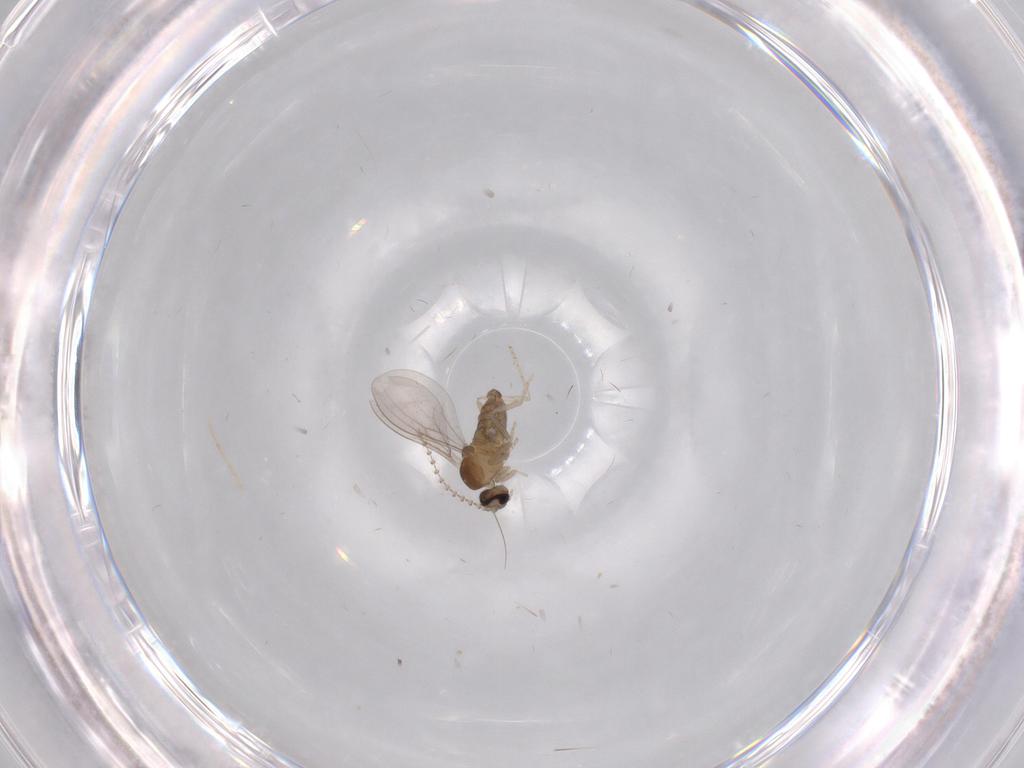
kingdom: Animalia
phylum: Arthropoda
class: Insecta
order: Diptera
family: Cecidomyiidae
